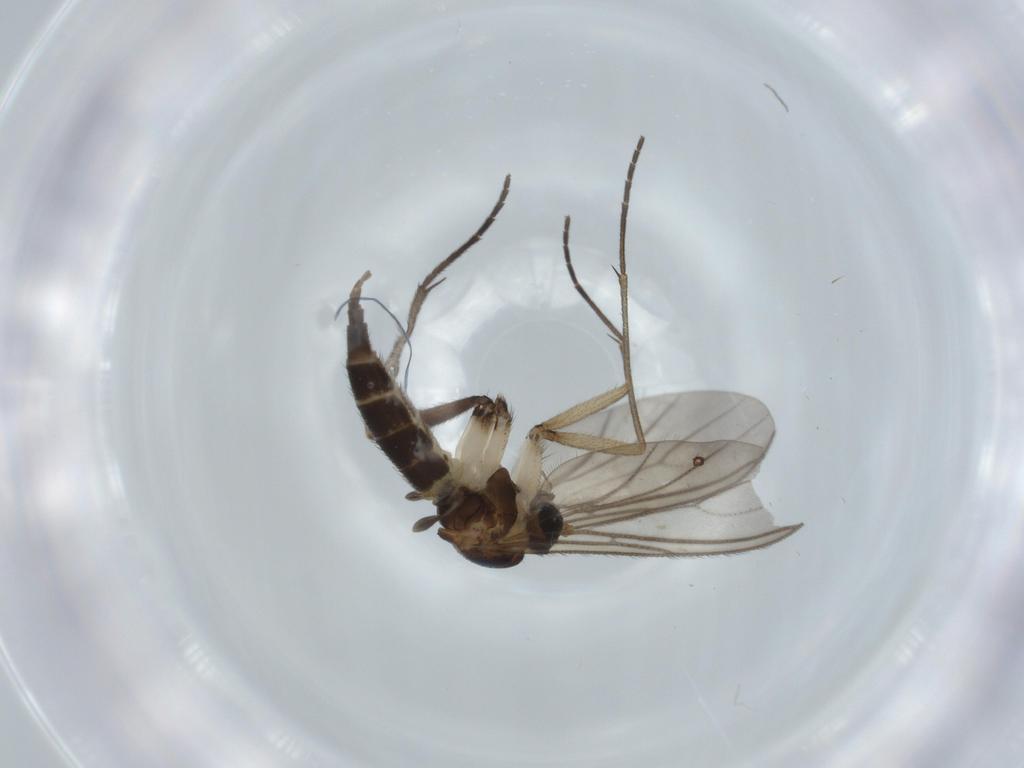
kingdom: Animalia
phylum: Arthropoda
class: Insecta
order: Diptera
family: Sciaridae
